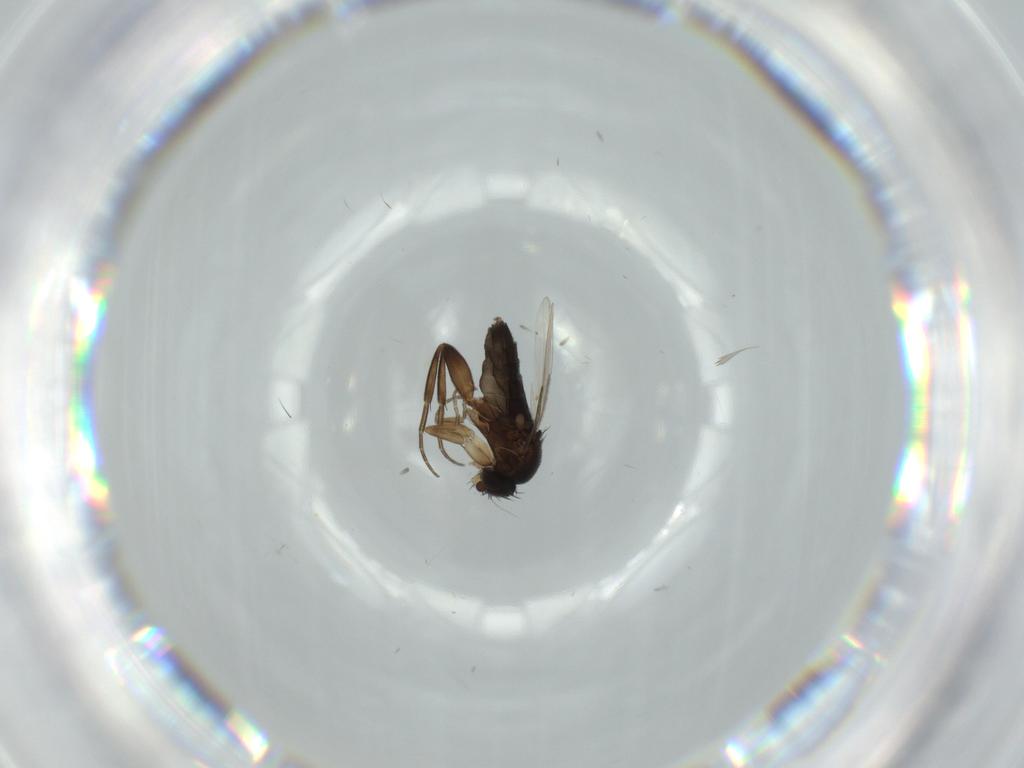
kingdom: Animalia
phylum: Arthropoda
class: Insecta
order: Diptera
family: Phoridae
